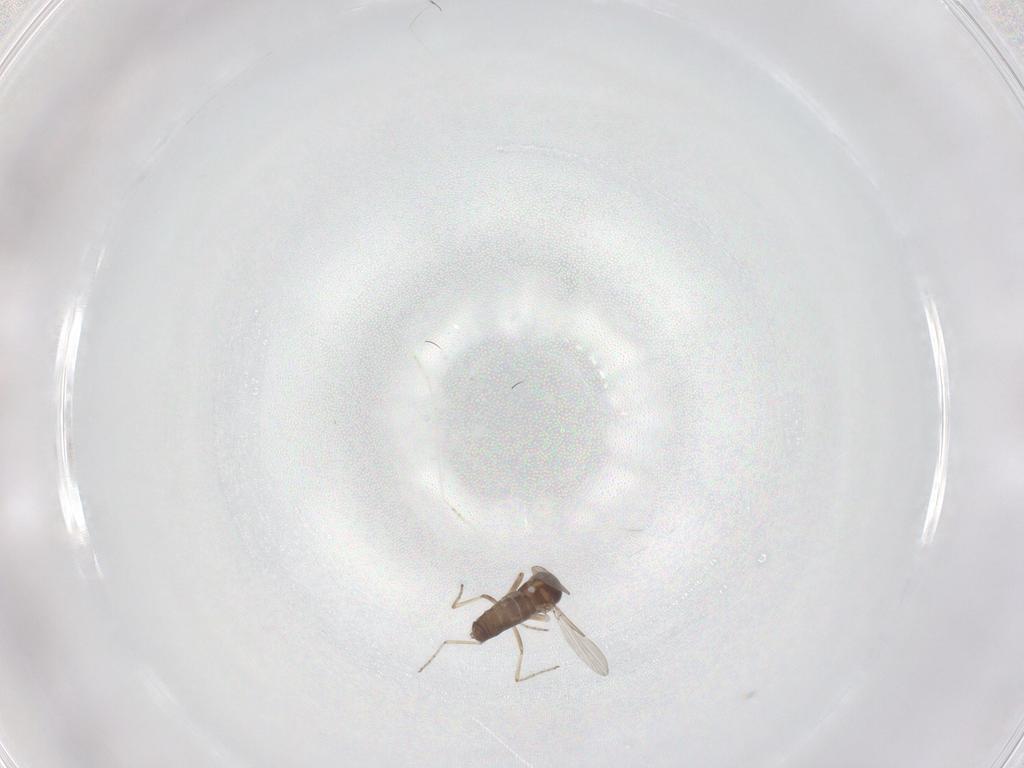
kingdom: Animalia
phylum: Arthropoda
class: Insecta
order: Diptera
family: Ceratopogonidae
